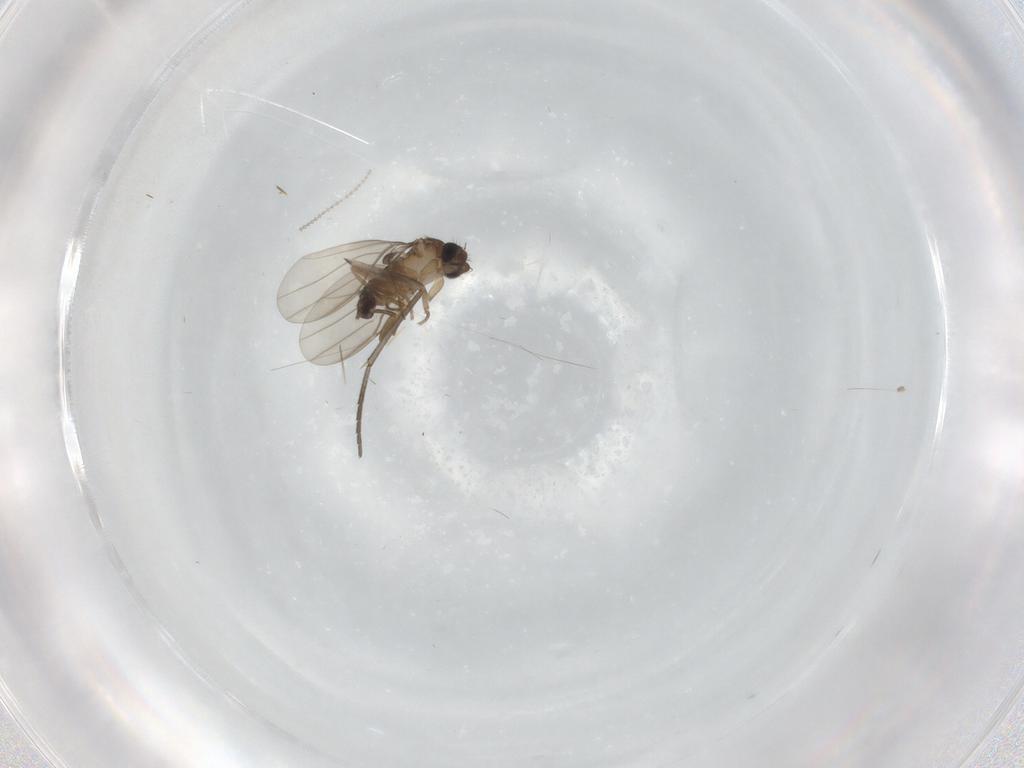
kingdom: Animalia
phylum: Arthropoda
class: Insecta
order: Diptera
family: Sciaridae
